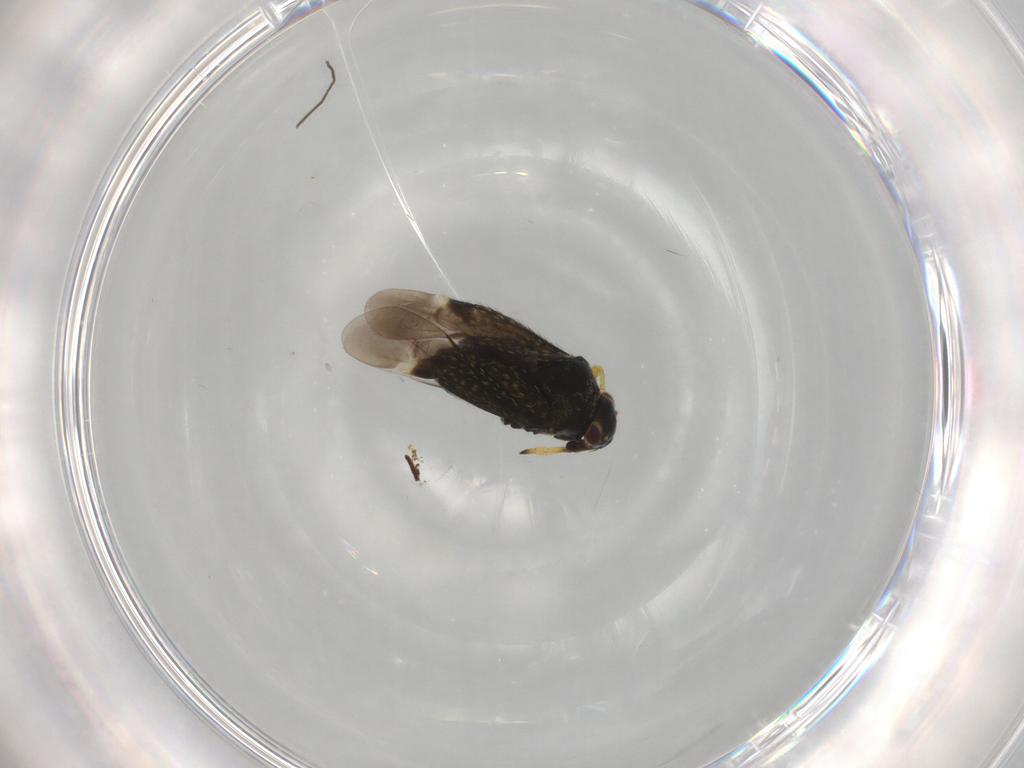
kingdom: Animalia
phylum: Arthropoda
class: Insecta
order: Hemiptera
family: Miridae
